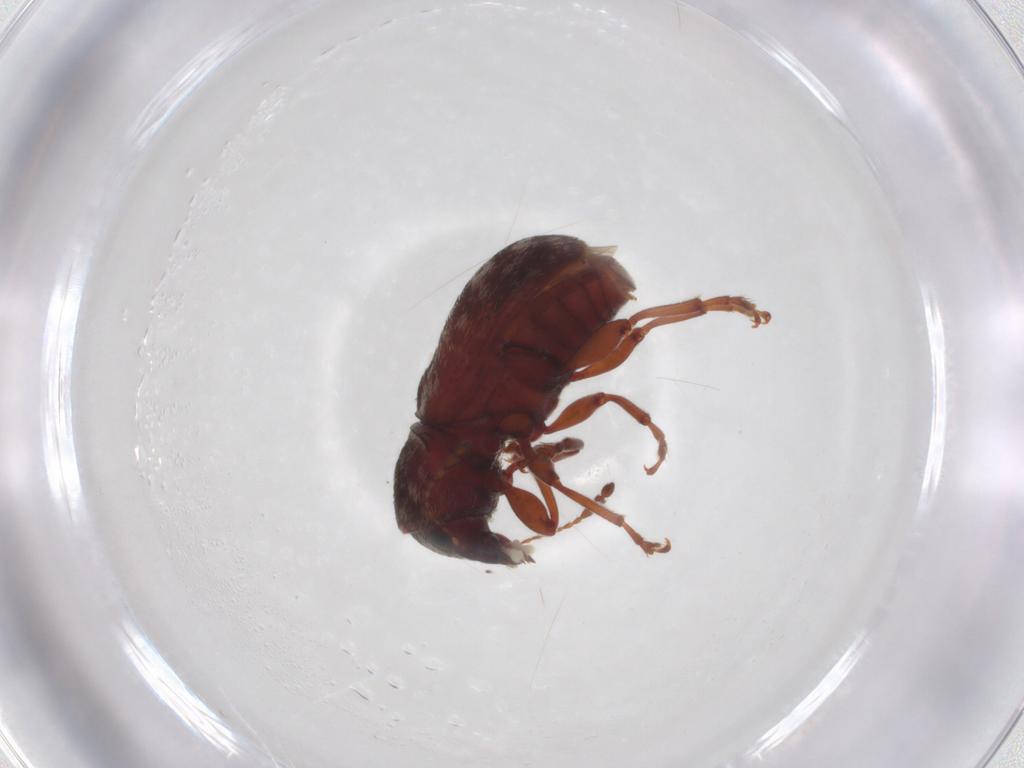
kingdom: Animalia
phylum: Arthropoda
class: Insecta
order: Coleoptera
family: Anthribidae
